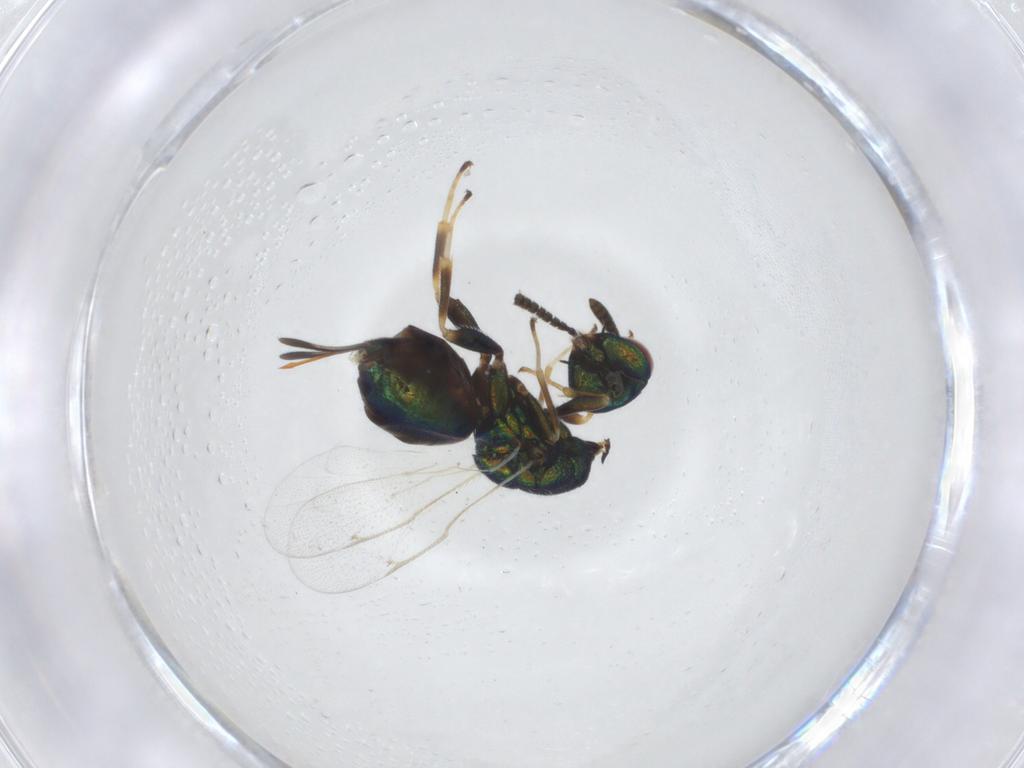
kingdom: Animalia
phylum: Arthropoda
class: Insecta
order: Hymenoptera
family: Torymidae
